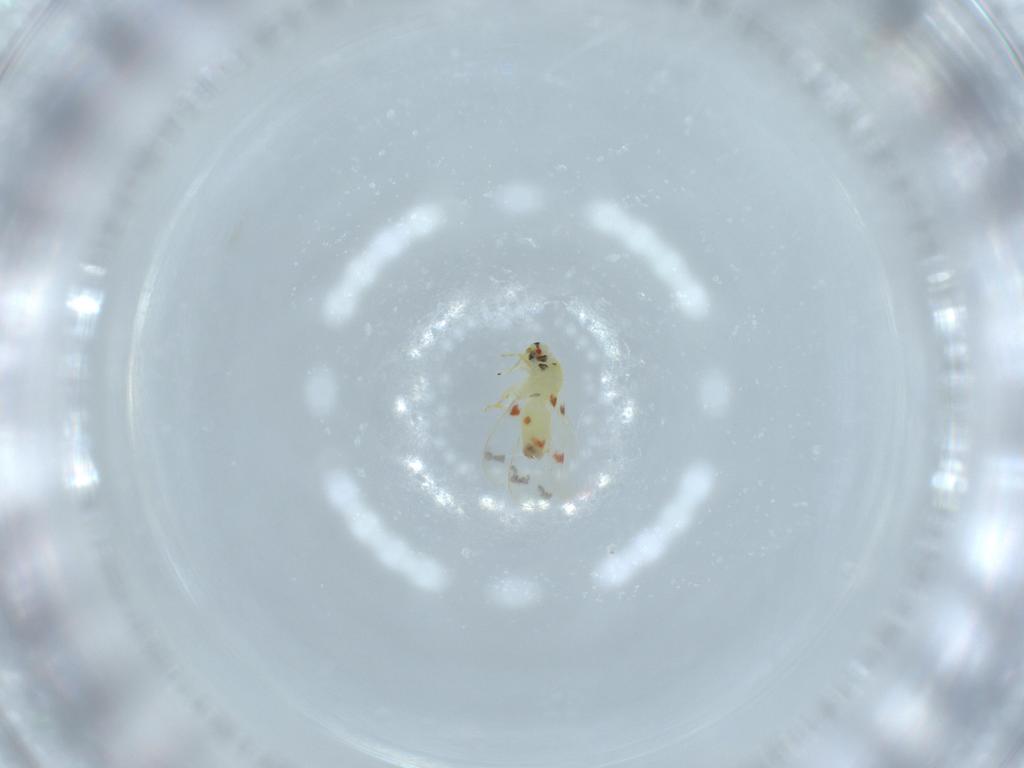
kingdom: Animalia
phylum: Arthropoda
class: Insecta
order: Hemiptera
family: Aleyrodidae
